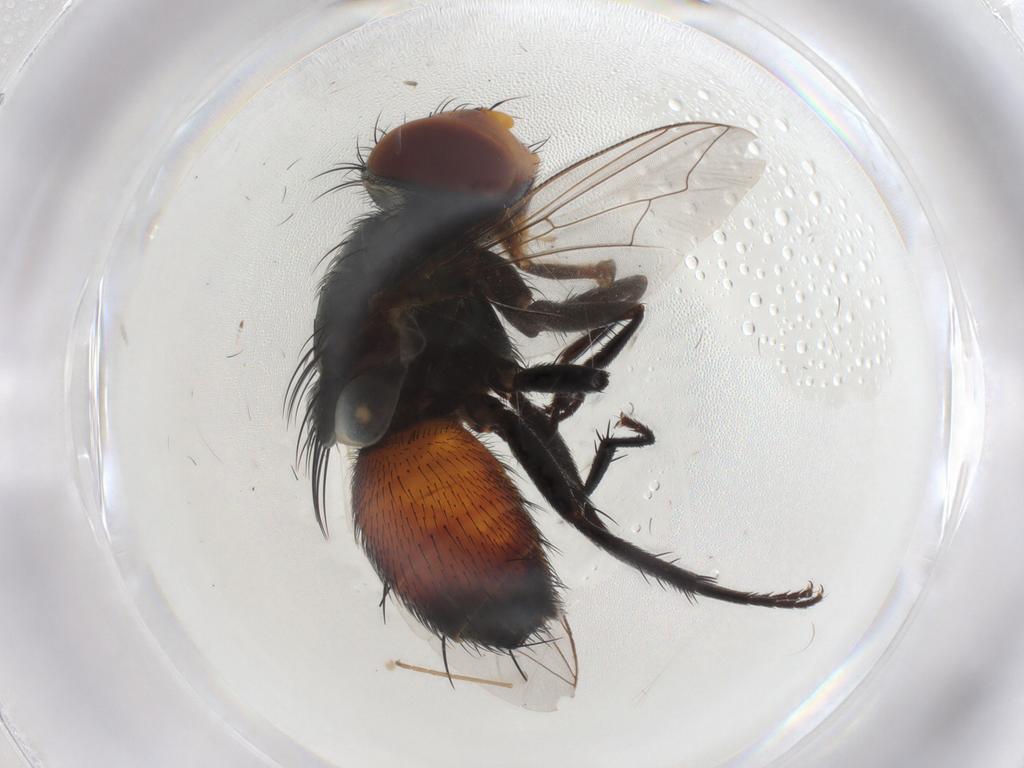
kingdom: Animalia
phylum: Arthropoda
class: Insecta
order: Diptera
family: Sarcophagidae
